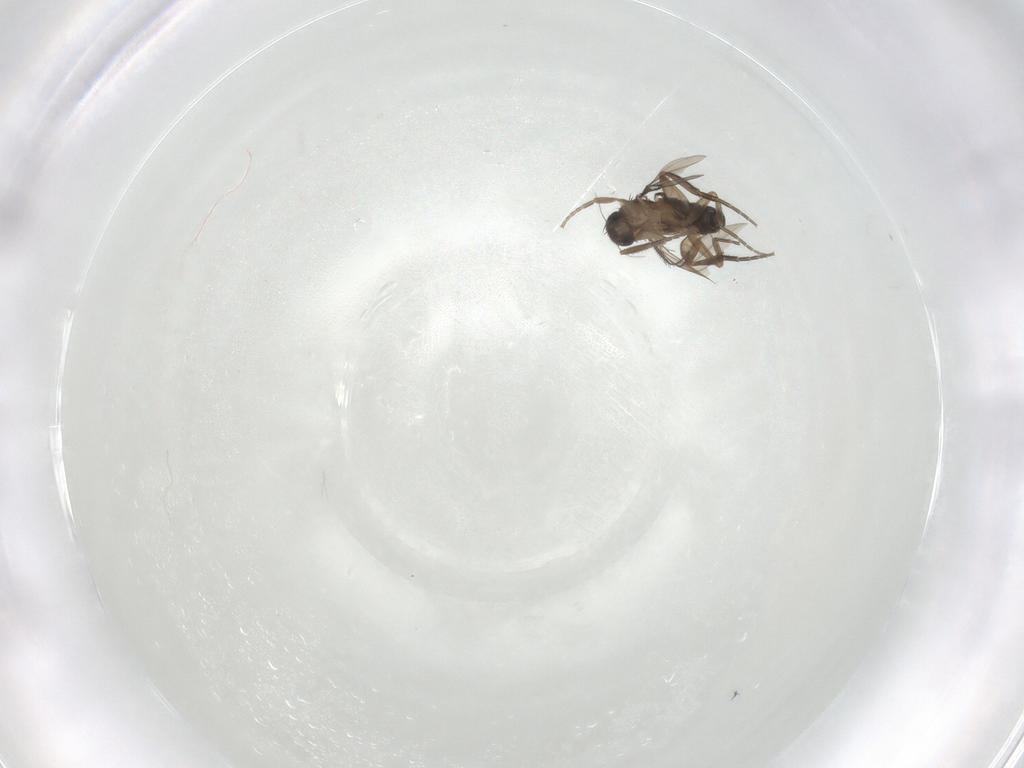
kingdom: Animalia
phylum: Arthropoda
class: Insecta
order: Diptera
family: Phoridae
